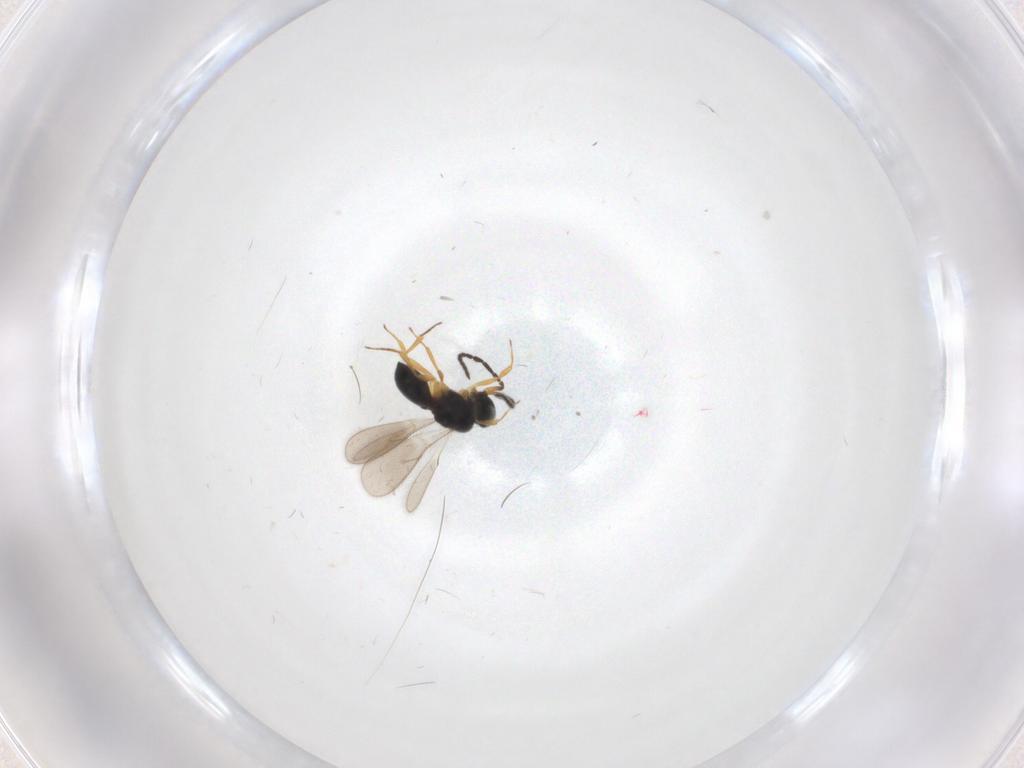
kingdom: Animalia
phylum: Arthropoda
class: Insecta
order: Hymenoptera
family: Scelionidae
